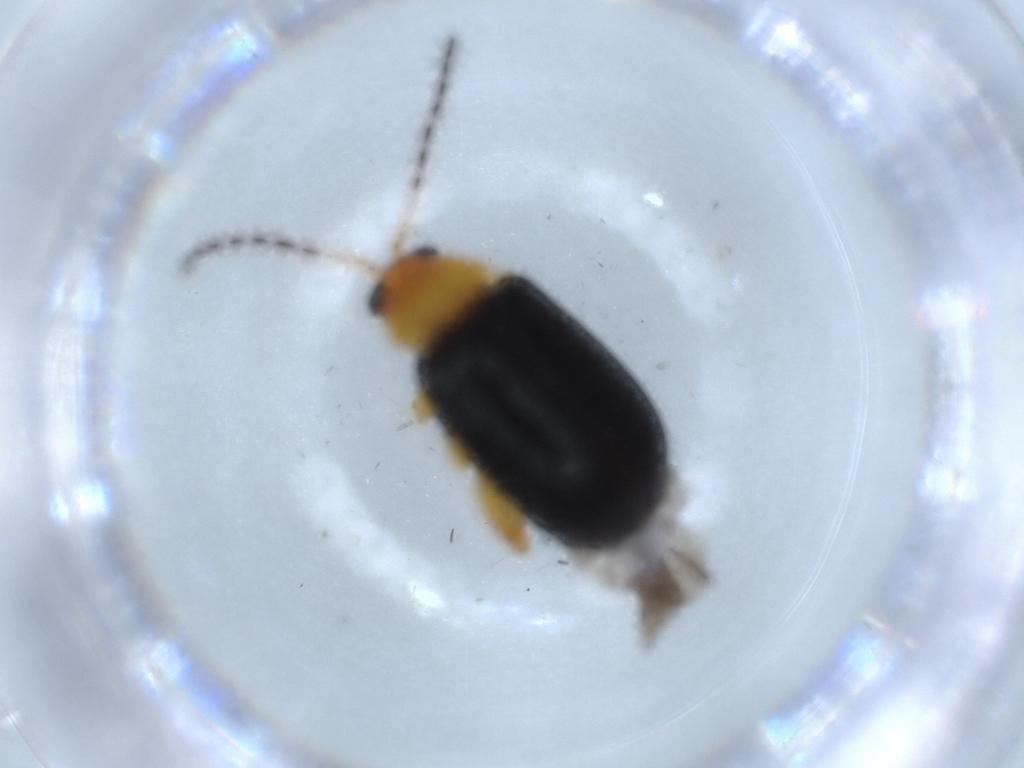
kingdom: Animalia
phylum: Arthropoda
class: Insecta
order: Coleoptera
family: Chrysomelidae
